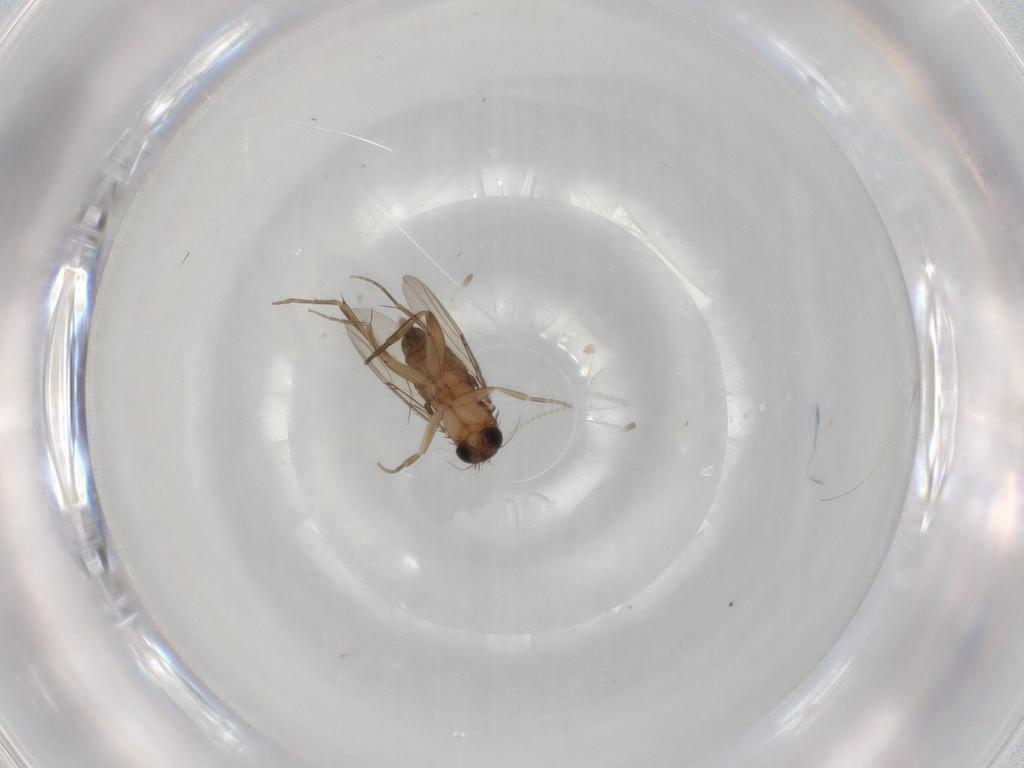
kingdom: Animalia
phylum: Arthropoda
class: Insecta
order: Diptera
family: Phoridae
